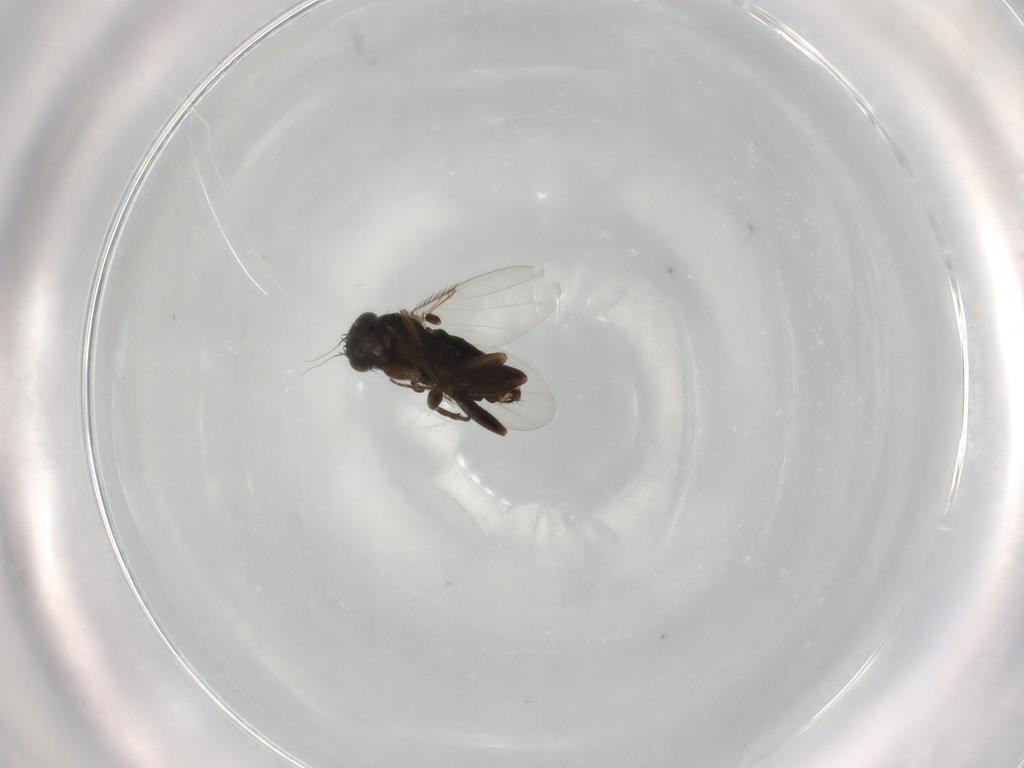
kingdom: Animalia
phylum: Arthropoda
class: Insecta
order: Diptera
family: Phoridae
